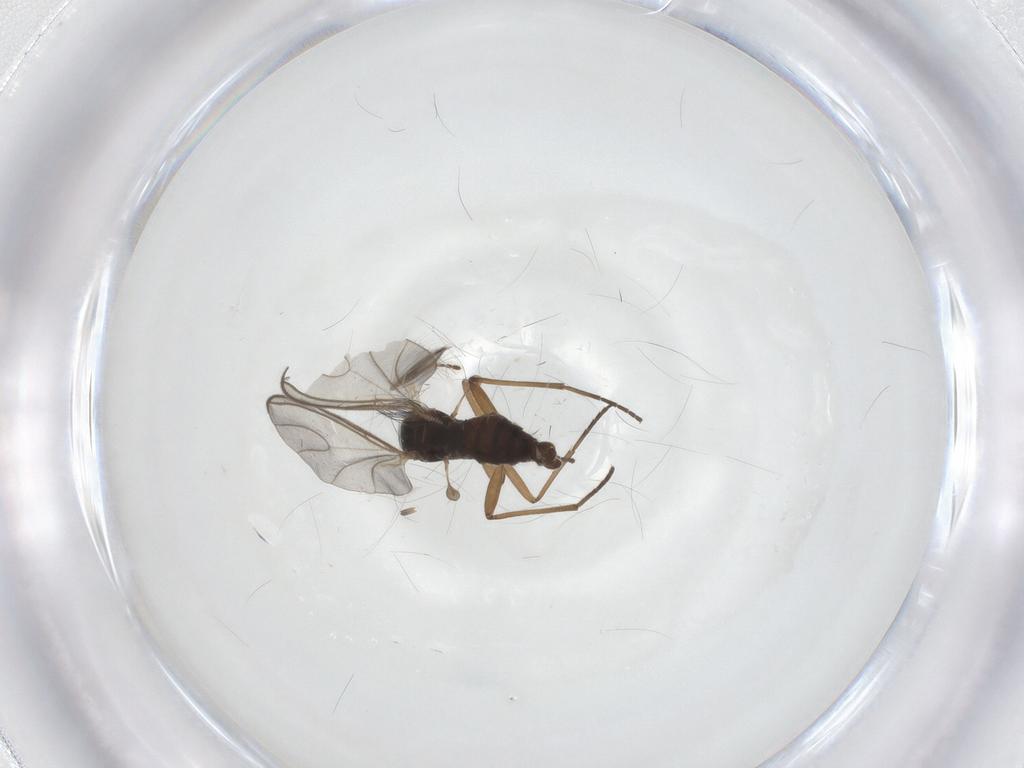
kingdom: Animalia
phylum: Arthropoda
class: Insecta
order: Diptera
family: Sciaridae
